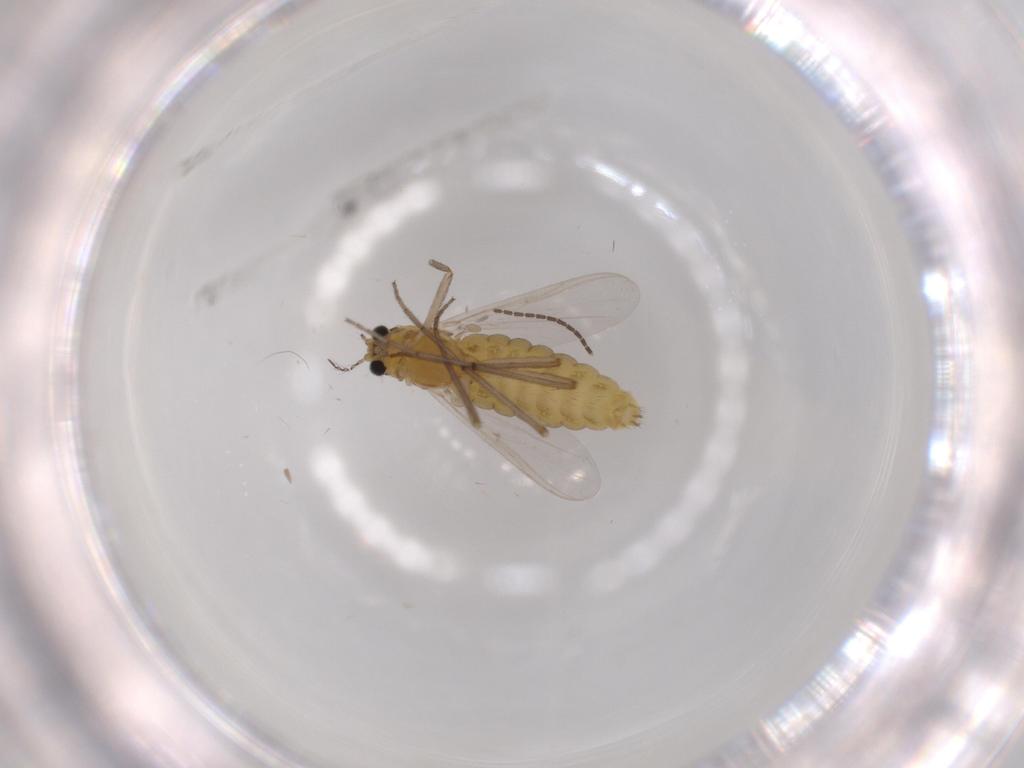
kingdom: Animalia
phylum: Arthropoda
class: Insecta
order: Diptera
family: Chironomidae
